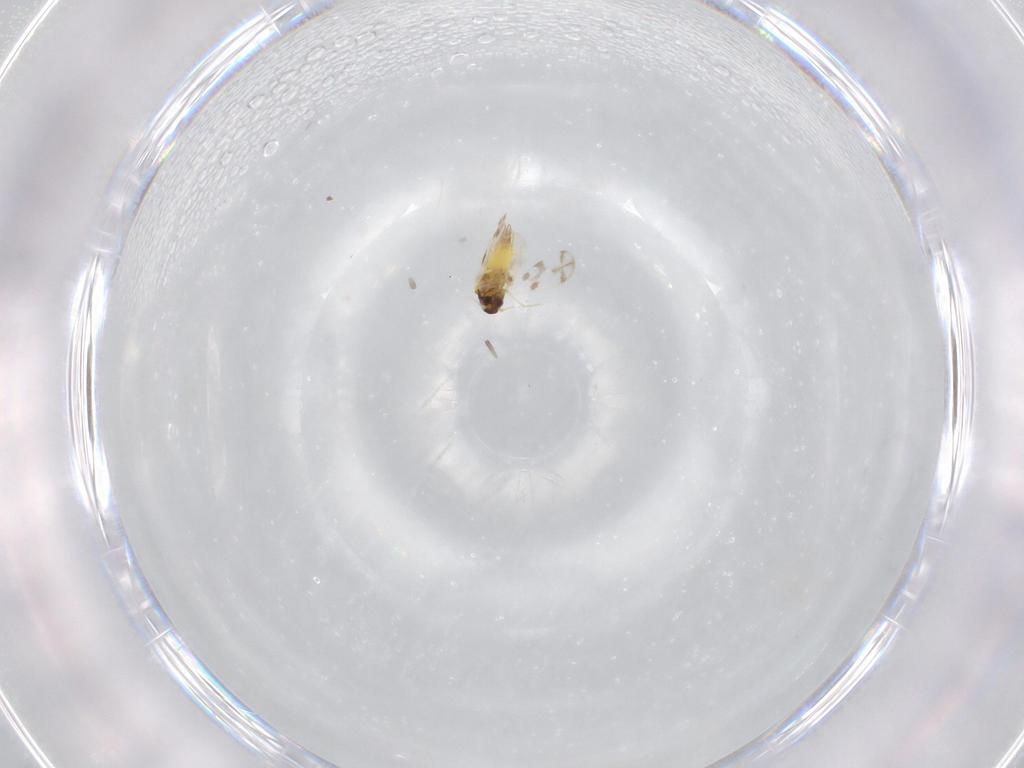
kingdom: Animalia
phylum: Arthropoda
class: Insecta
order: Hemiptera
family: Aleyrodidae
